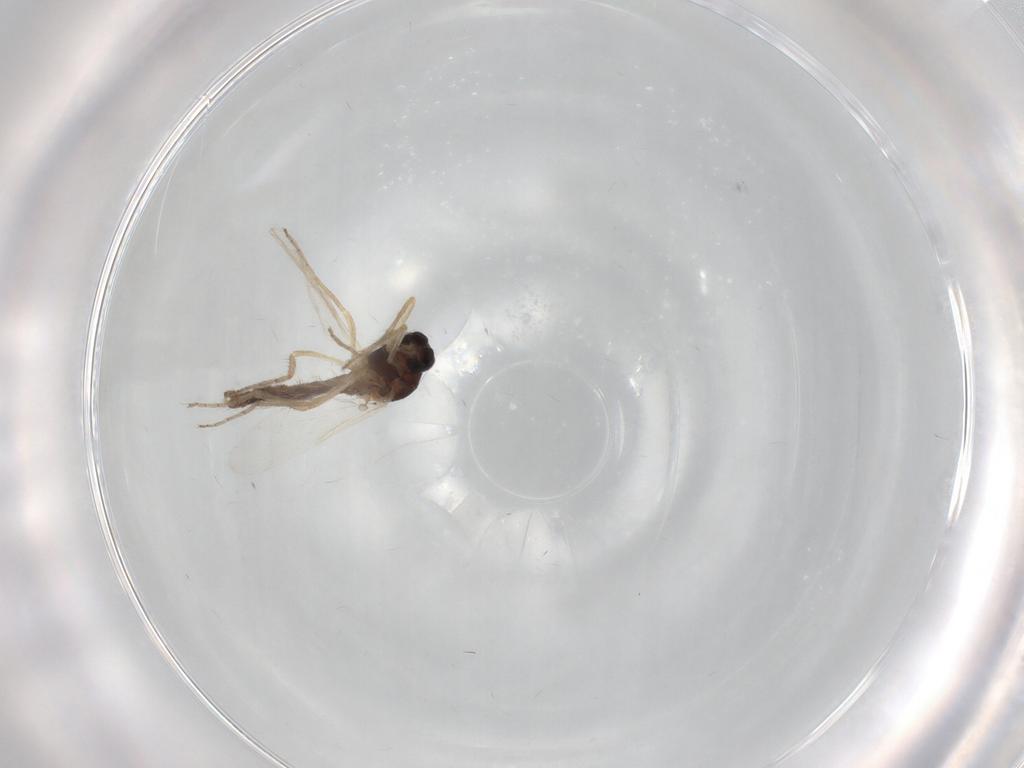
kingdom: Animalia
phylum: Arthropoda
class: Insecta
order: Diptera
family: Ceratopogonidae
